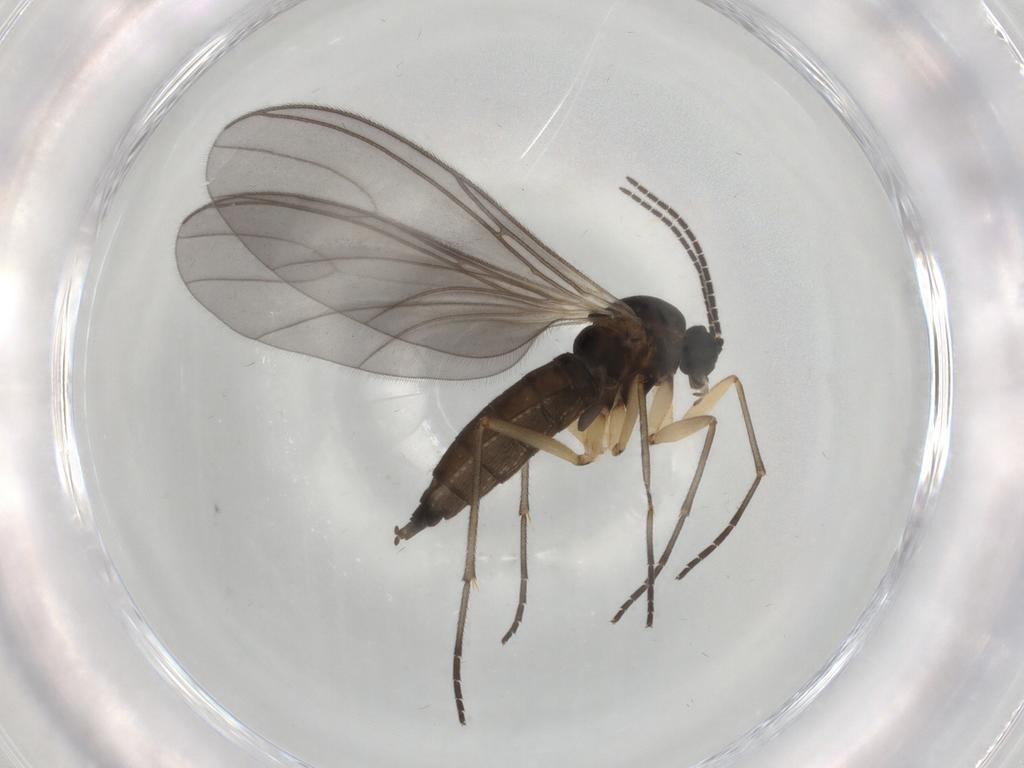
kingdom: Animalia
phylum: Arthropoda
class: Insecta
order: Diptera
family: Sciaridae
